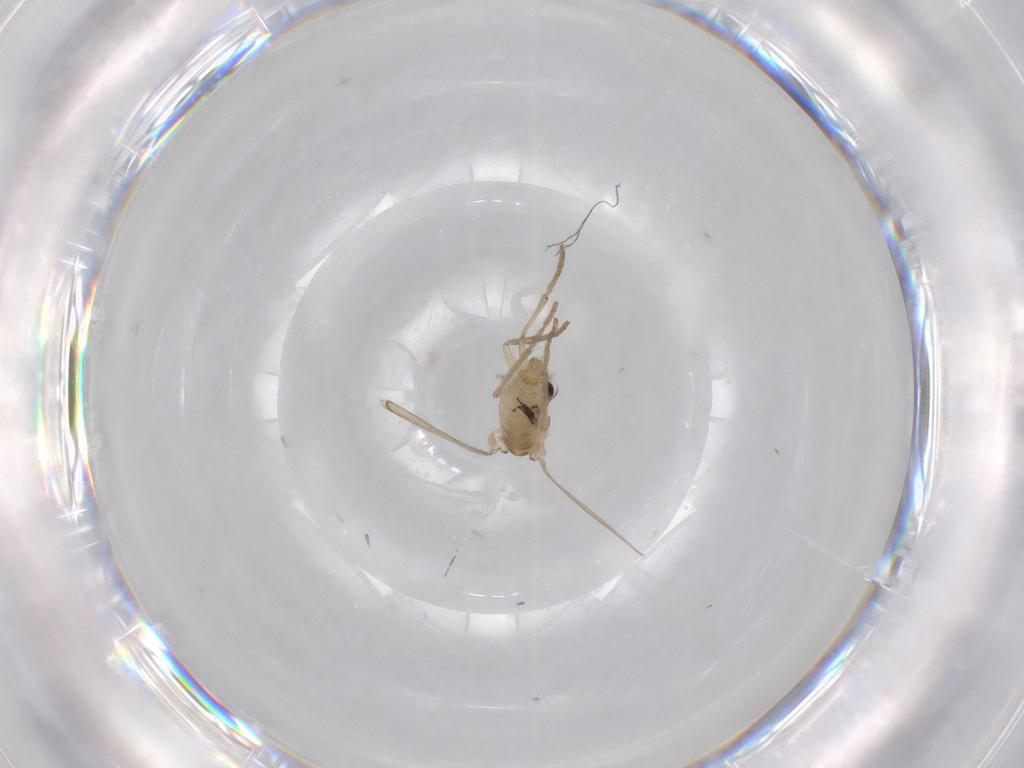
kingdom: Animalia
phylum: Arthropoda
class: Insecta
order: Diptera
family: Psychodidae
